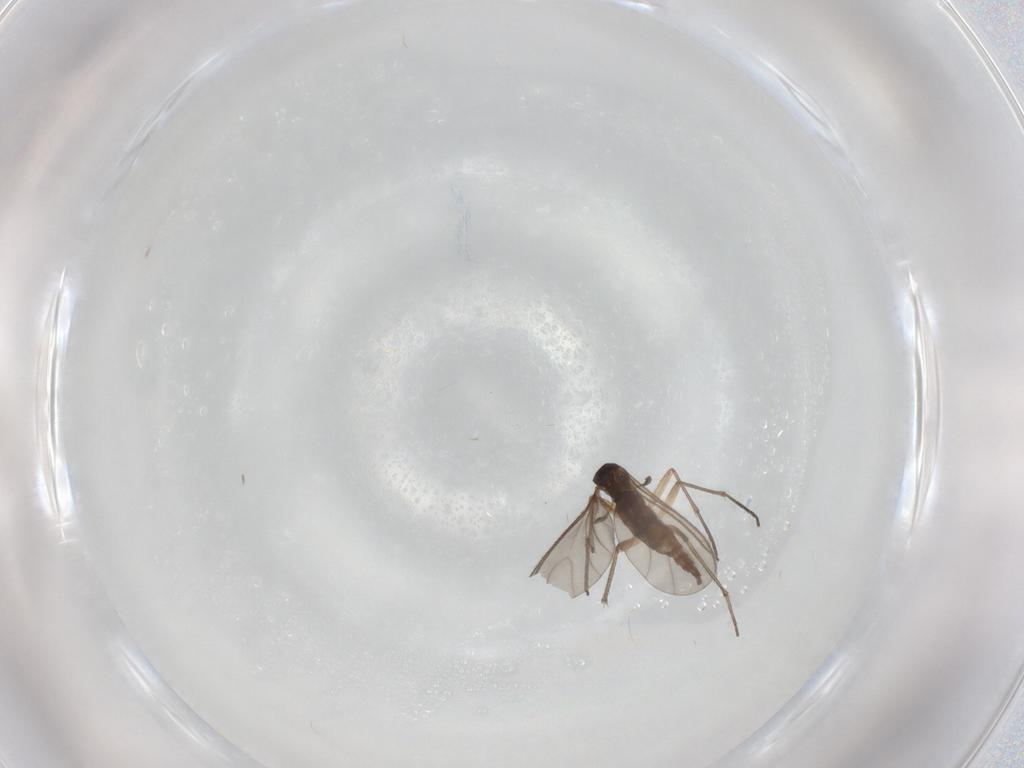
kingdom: Animalia
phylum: Arthropoda
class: Insecta
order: Diptera
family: Sciaridae
